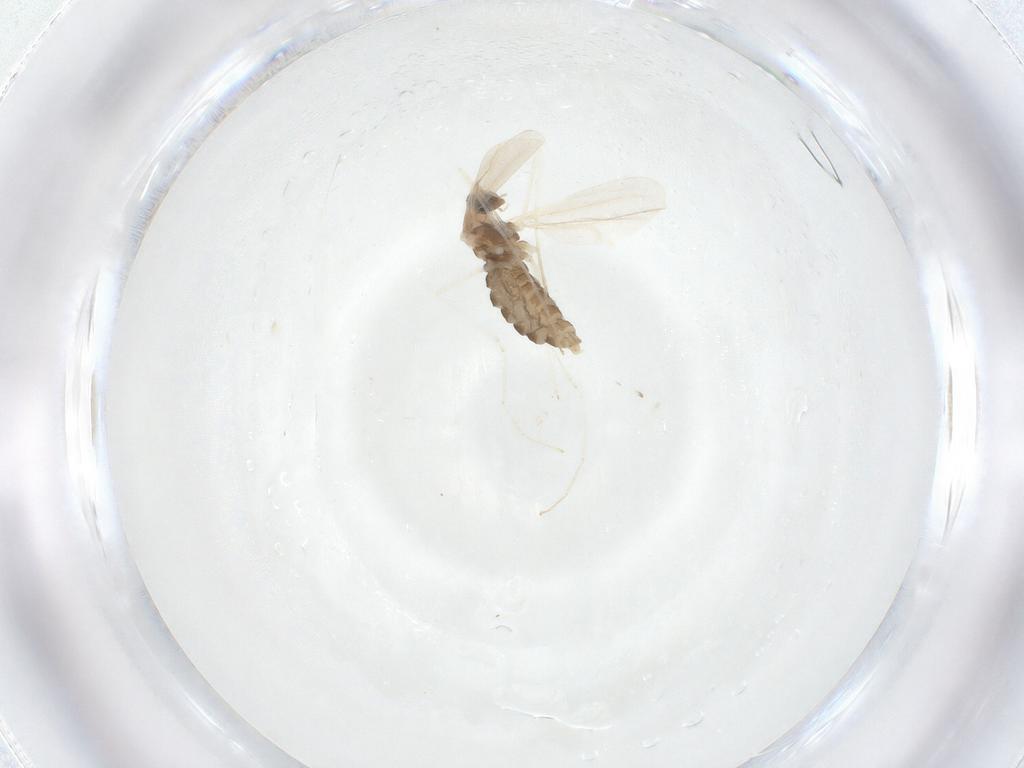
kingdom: Animalia
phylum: Arthropoda
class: Insecta
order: Diptera
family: Cecidomyiidae
